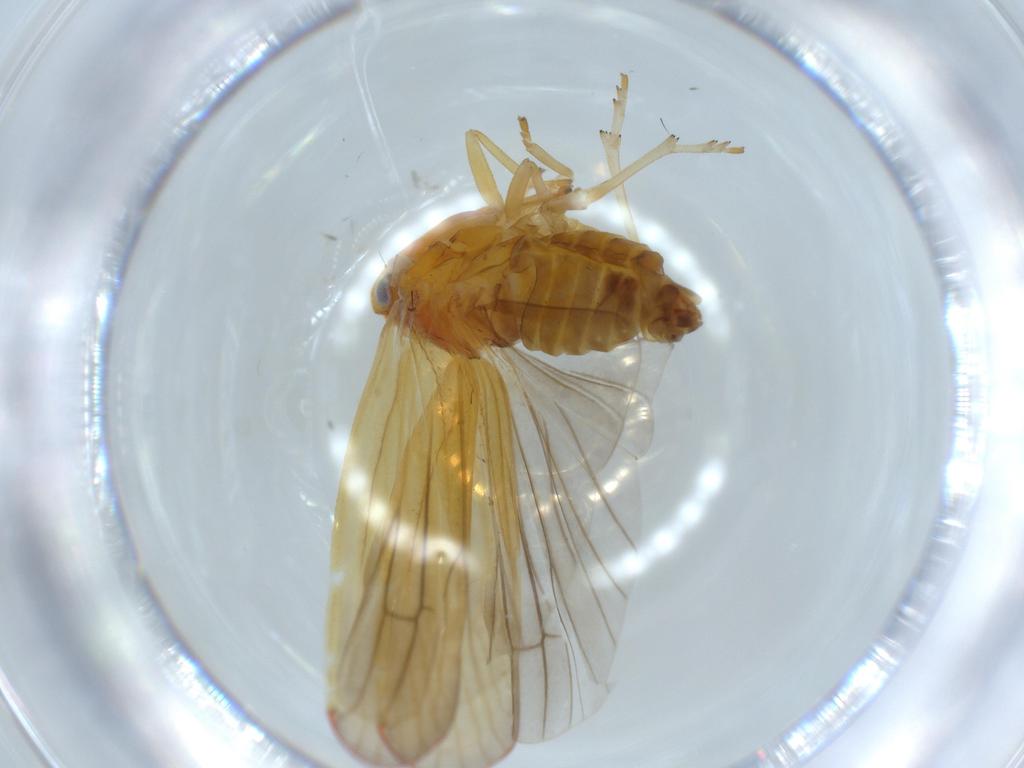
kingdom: Animalia
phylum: Arthropoda
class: Insecta
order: Hemiptera
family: Derbidae
